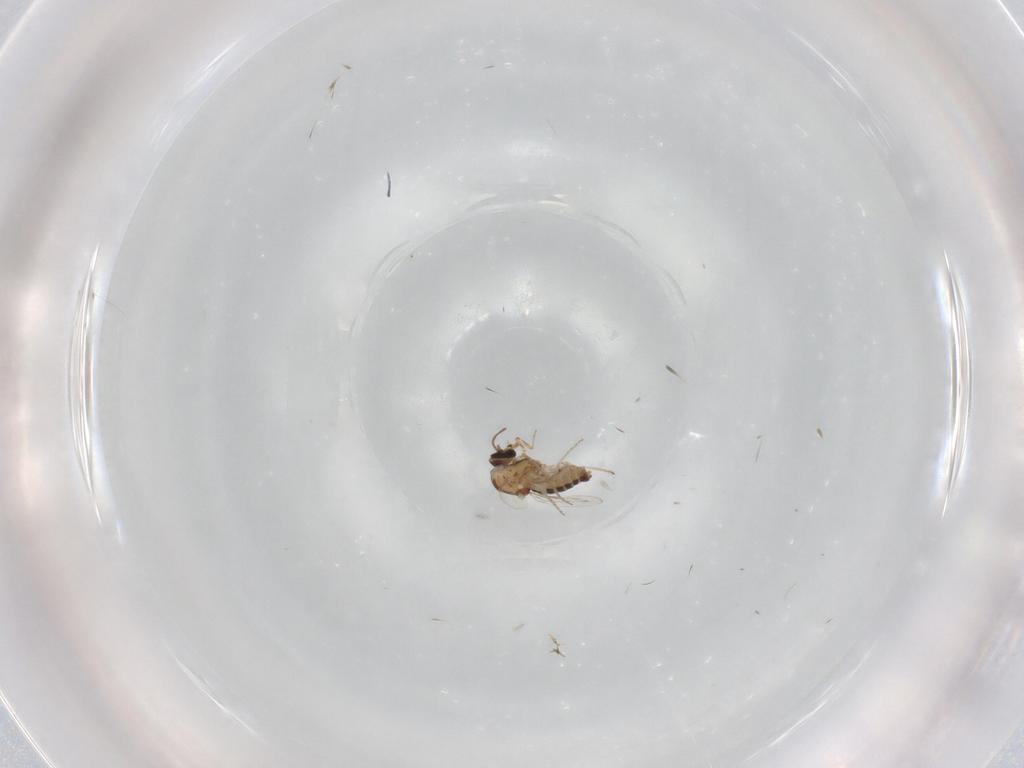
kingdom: Animalia
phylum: Arthropoda
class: Insecta
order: Diptera
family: Ceratopogonidae
